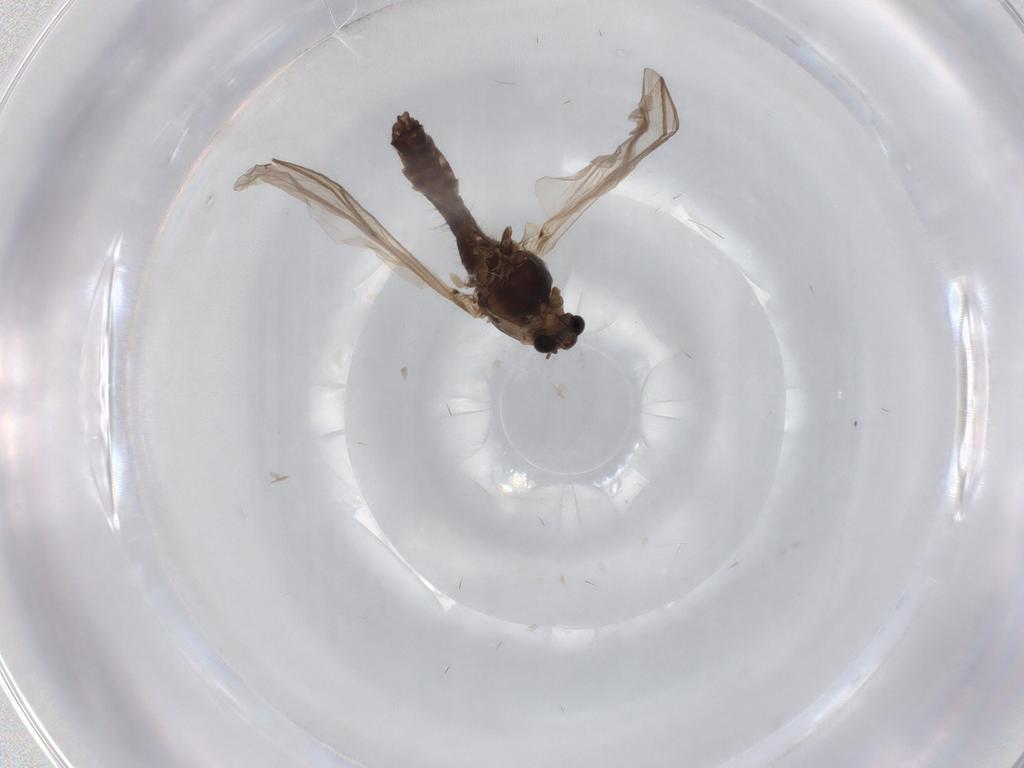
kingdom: Animalia
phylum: Arthropoda
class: Insecta
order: Diptera
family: Chironomidae
